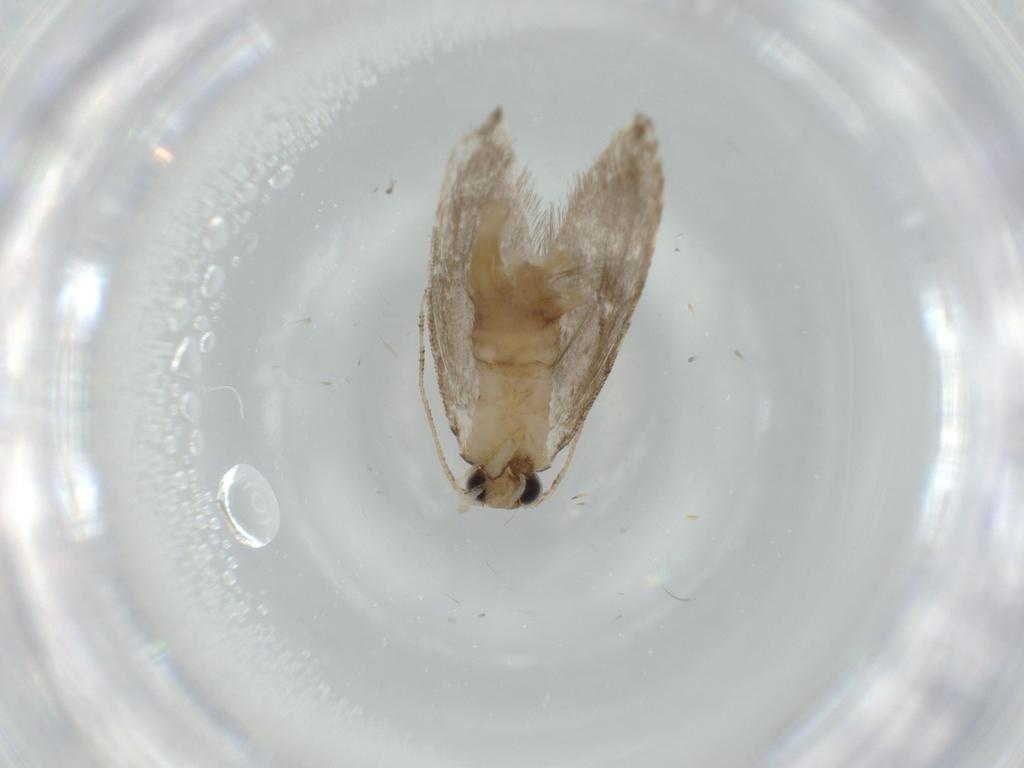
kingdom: Animalia
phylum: Arthropoda
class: Insecta
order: Lepidoptera
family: Tineidae
